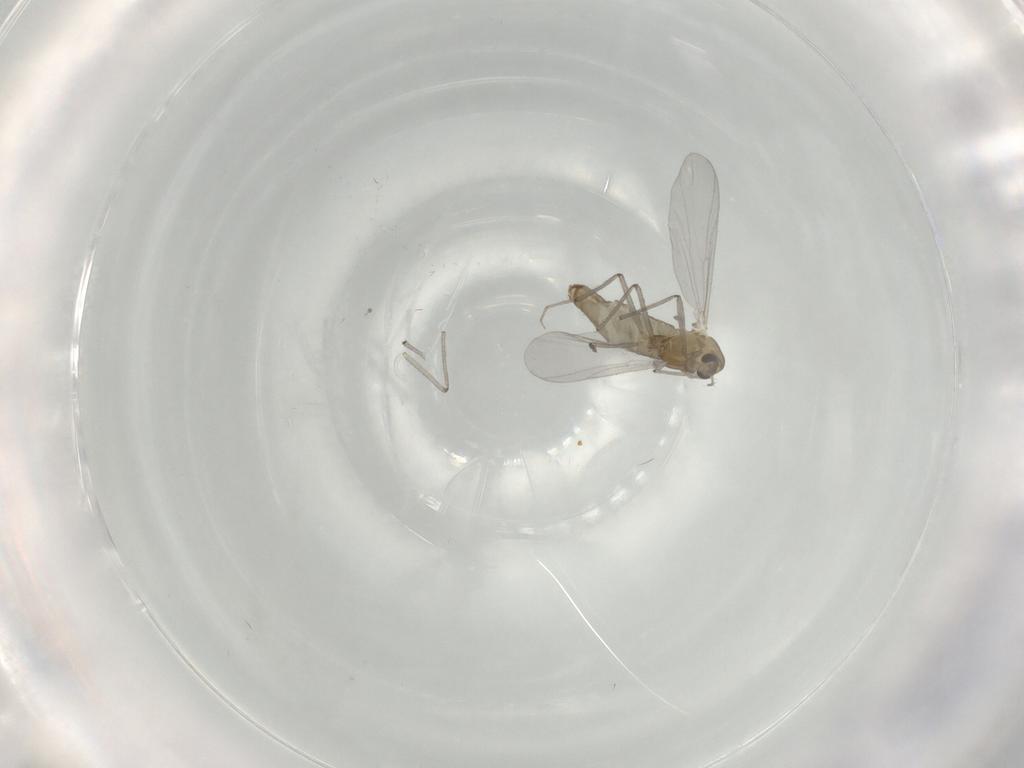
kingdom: Animalia
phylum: Arthropoda
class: Insecta
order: Diptera
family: Chironomidae
